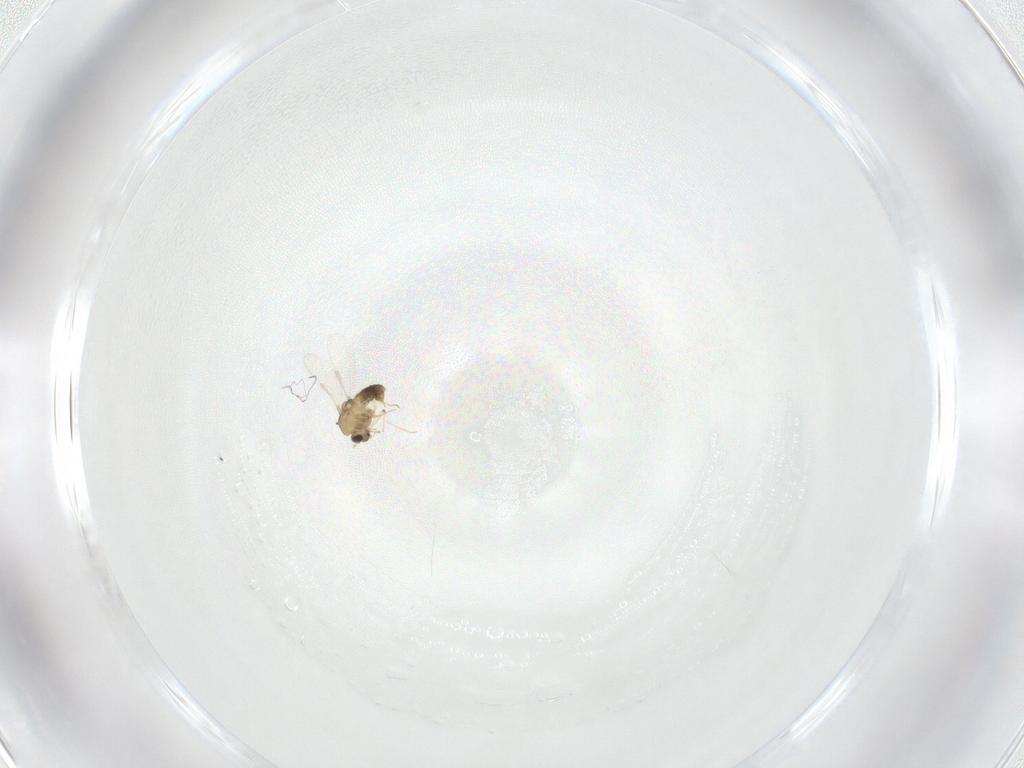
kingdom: Animalia
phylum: Arthropoda
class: Insecta
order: Diptera
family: Chironomidae
